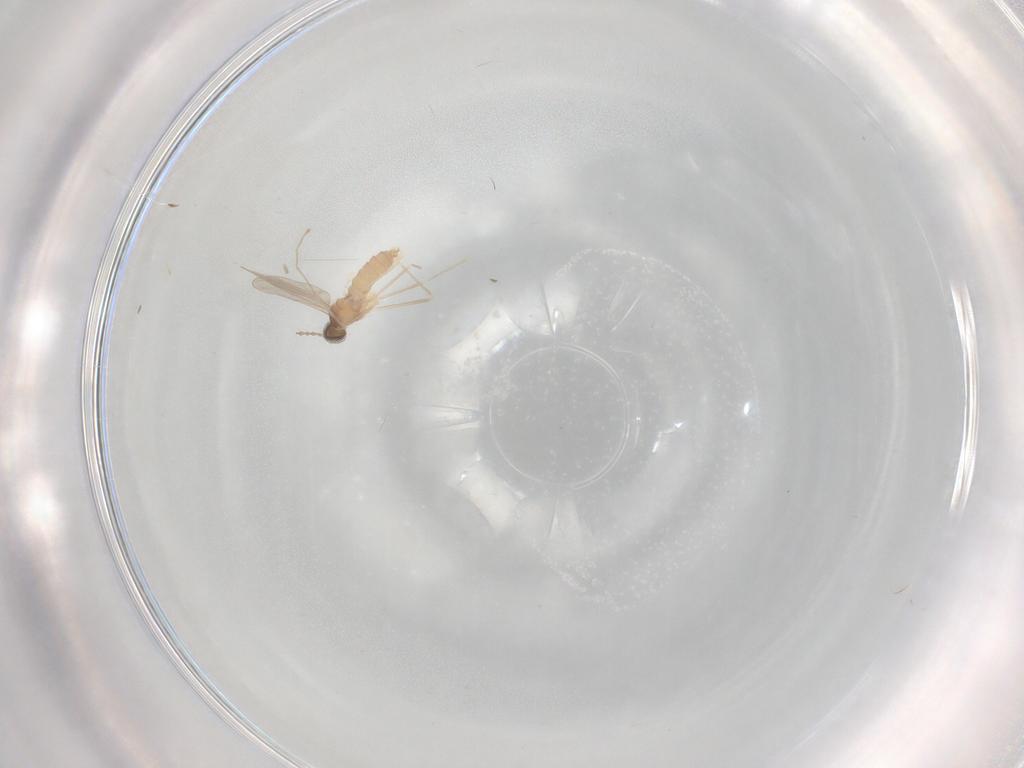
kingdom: Animalia
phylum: Arthropoda
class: Insecta
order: Diptera
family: Cecidomyiidae
